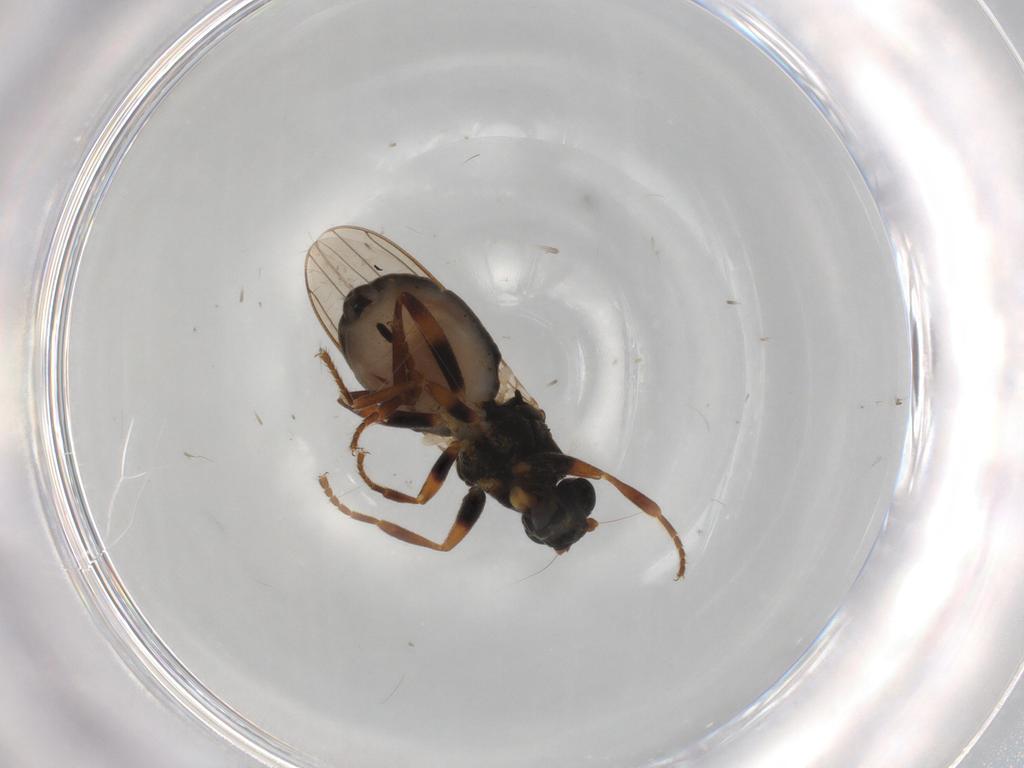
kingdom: Animalia
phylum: Arthropoda
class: Insecta
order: Diptera
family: Sphaeroceridae
